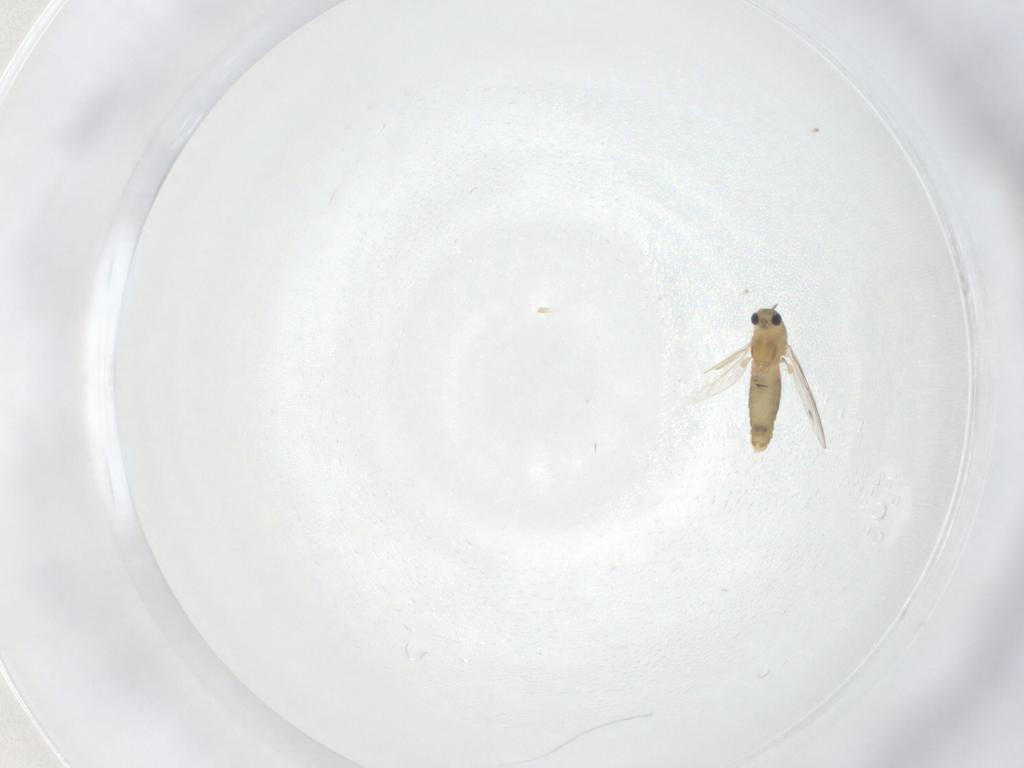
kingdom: Animalia
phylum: Arthropoda
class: Insecta
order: Diptera
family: Chironomidae
